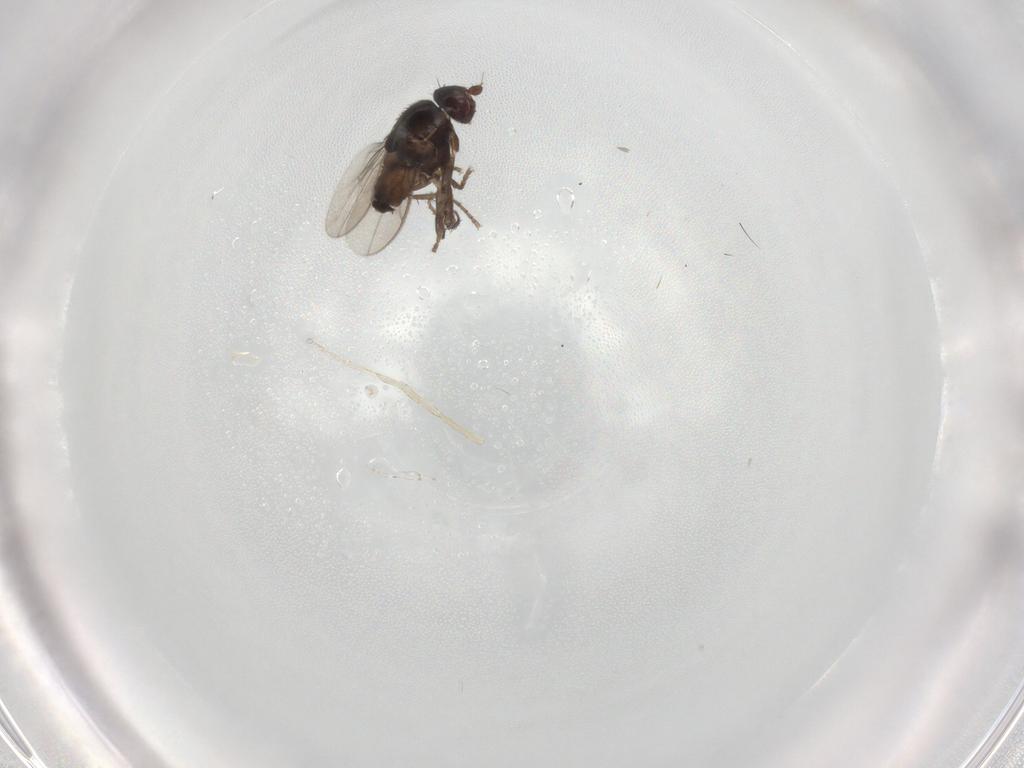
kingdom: Animalia
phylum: Arthropoda
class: Insecta
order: Diptera
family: Sphaeroceridae
